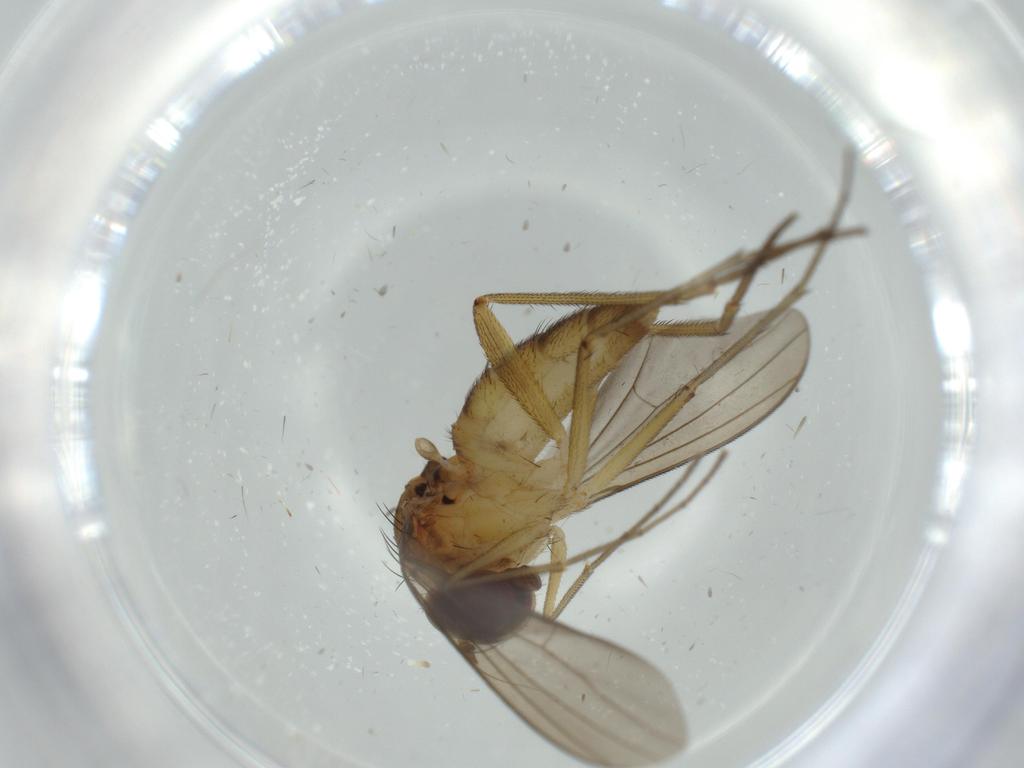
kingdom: Animalia
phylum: Arthropoda
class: Insecta
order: Diptera
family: Dolichopodidae
